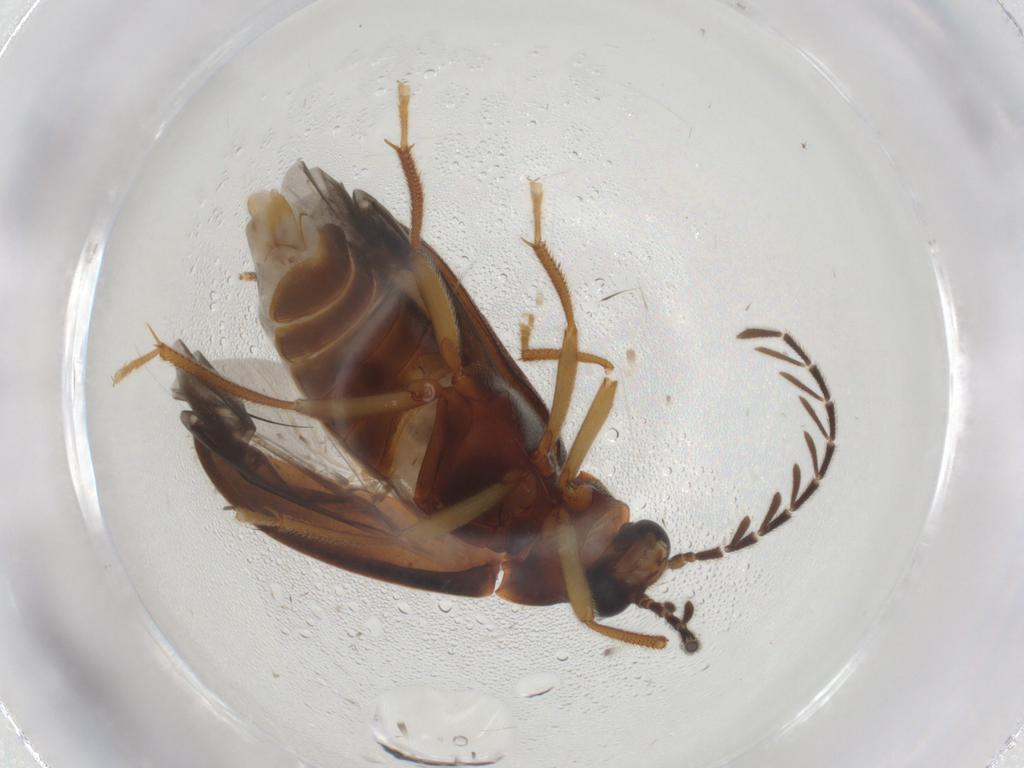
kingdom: Animalia
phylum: Arthropoda
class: Insecta
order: Coleoptera
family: Ptilodactylidae
